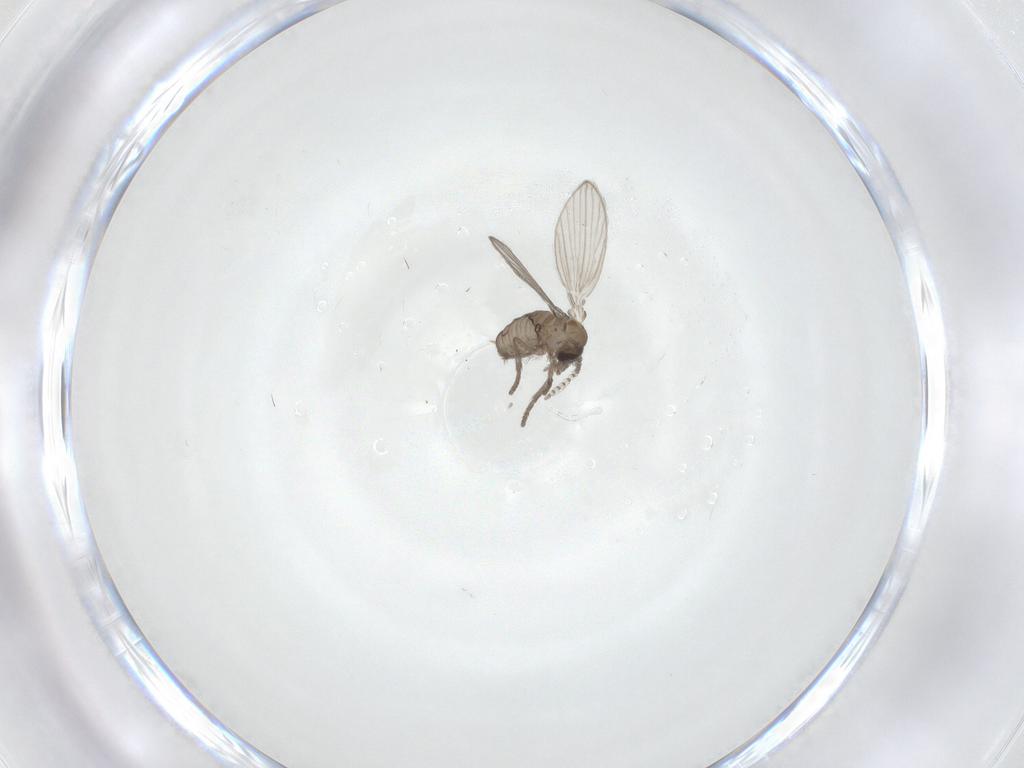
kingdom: Animalia
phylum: Arthropoda
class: Insecta
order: Diptera
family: Psychodidae
